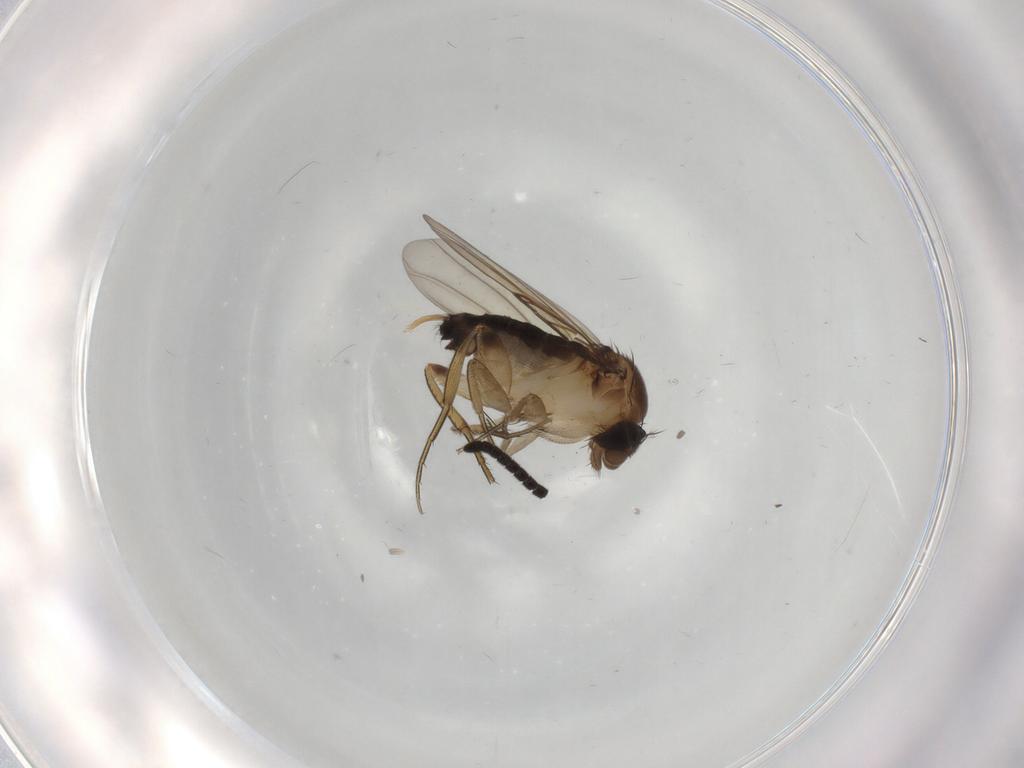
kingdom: Animalia
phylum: Arthropoda
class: Insecta
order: Diptera
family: Phoridae
